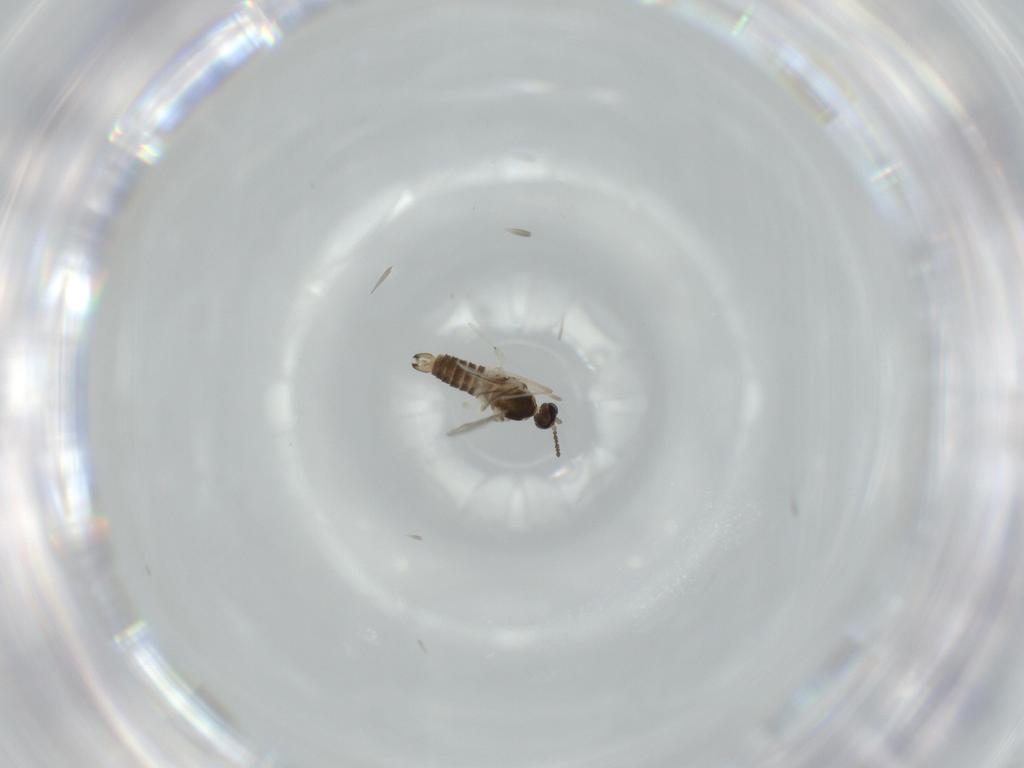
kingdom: Animalia
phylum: Arthropoda
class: Insecta
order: Diptera
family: Cecidomyiidae
